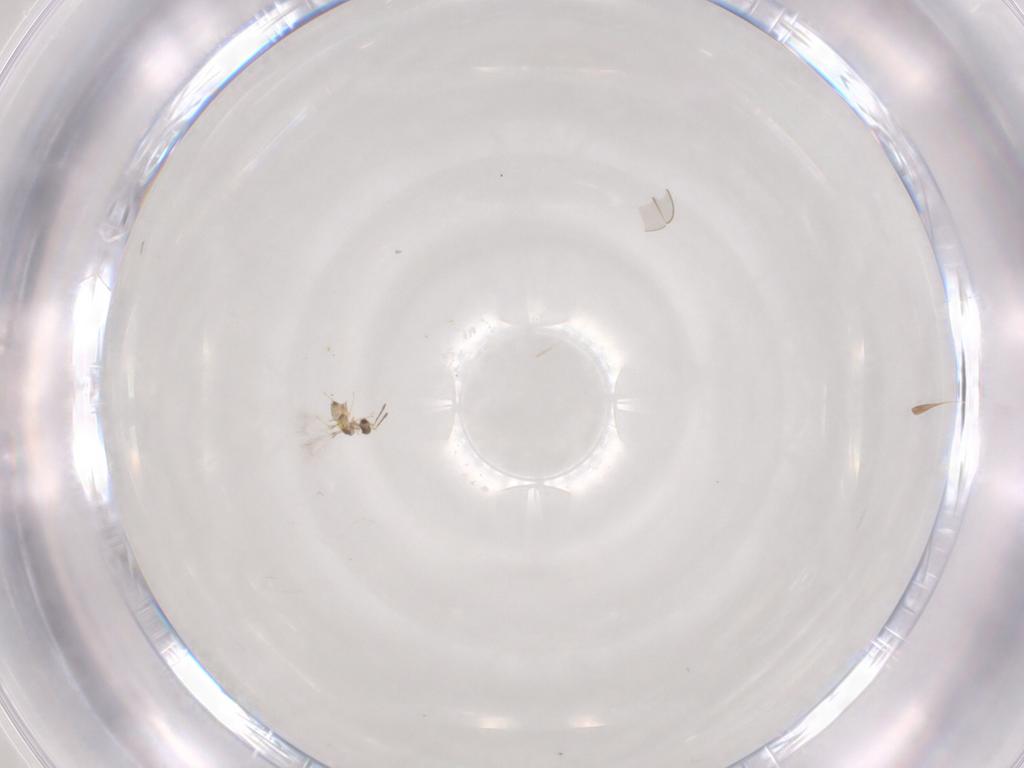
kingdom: Animalia
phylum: Arthropoda
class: Insecta
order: Hymenoptera
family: Mymaridae
